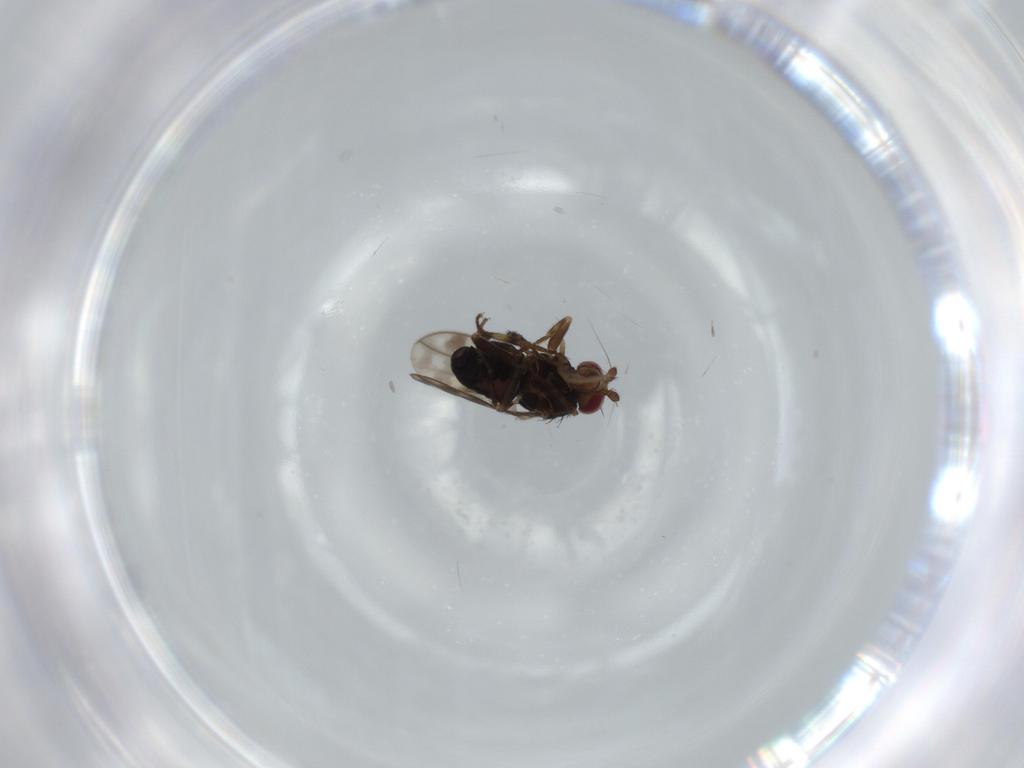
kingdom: Animalia
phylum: Arthropoda
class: Insecta
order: Diptera
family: Sphaeroceridae
